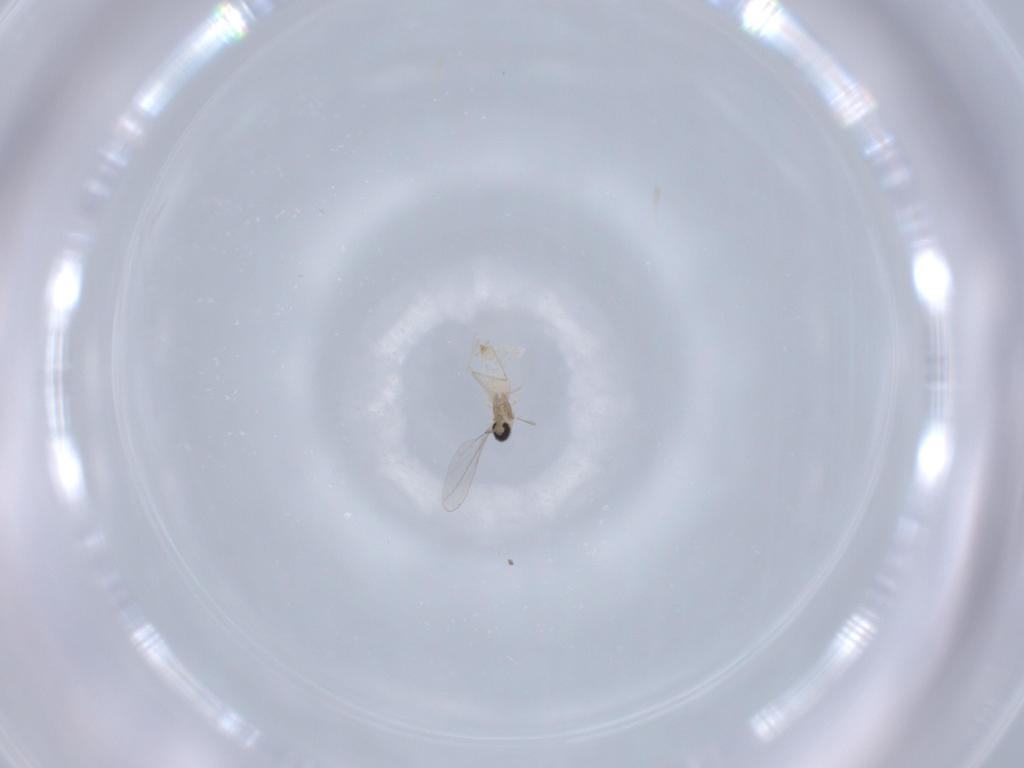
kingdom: Animalia
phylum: Arthropoda
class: Insecta
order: Diptera
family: Cecidomyiidae
